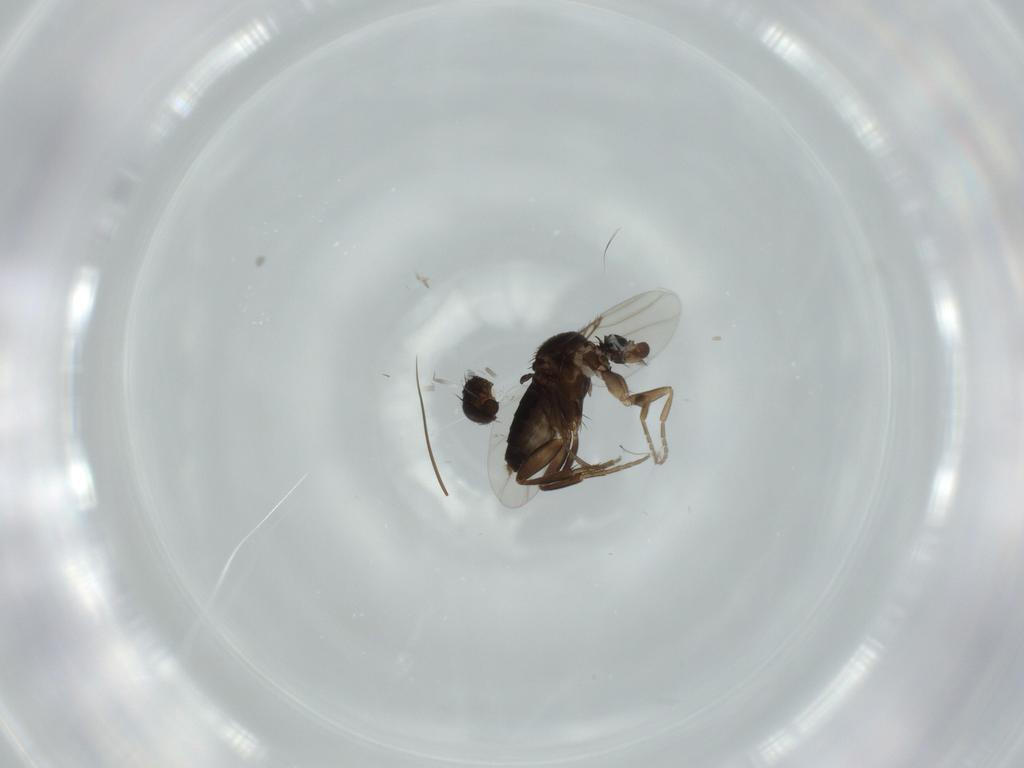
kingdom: Animalia
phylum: Arthropoda
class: Insecta
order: Diptera
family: Phoridae
